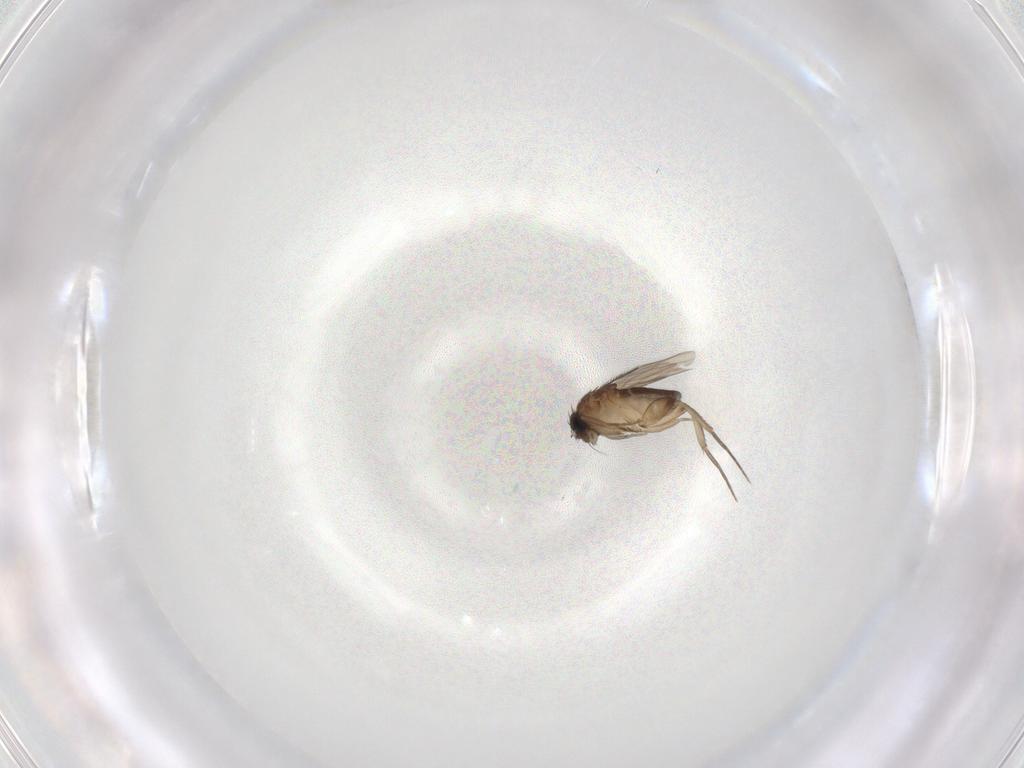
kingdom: Animalia
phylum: Arthropoda
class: Insecta
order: Diptera
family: Phoridae
